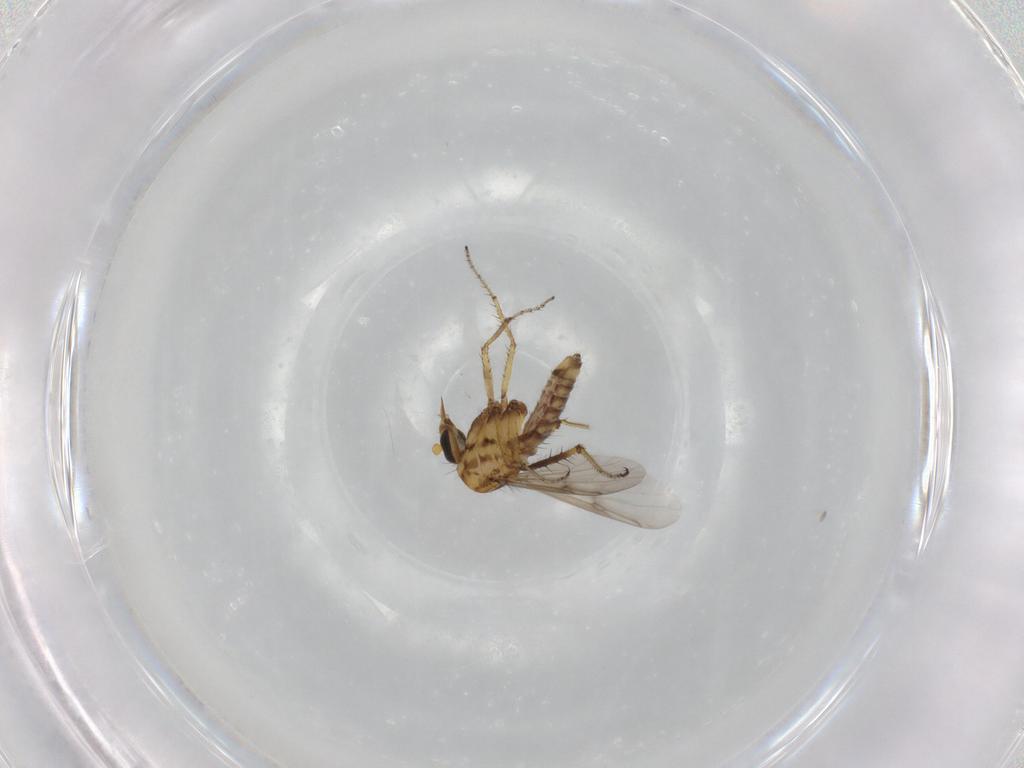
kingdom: Animalia
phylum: Arthropoda
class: Insecta
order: Diptera
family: Ceratopogonidae
